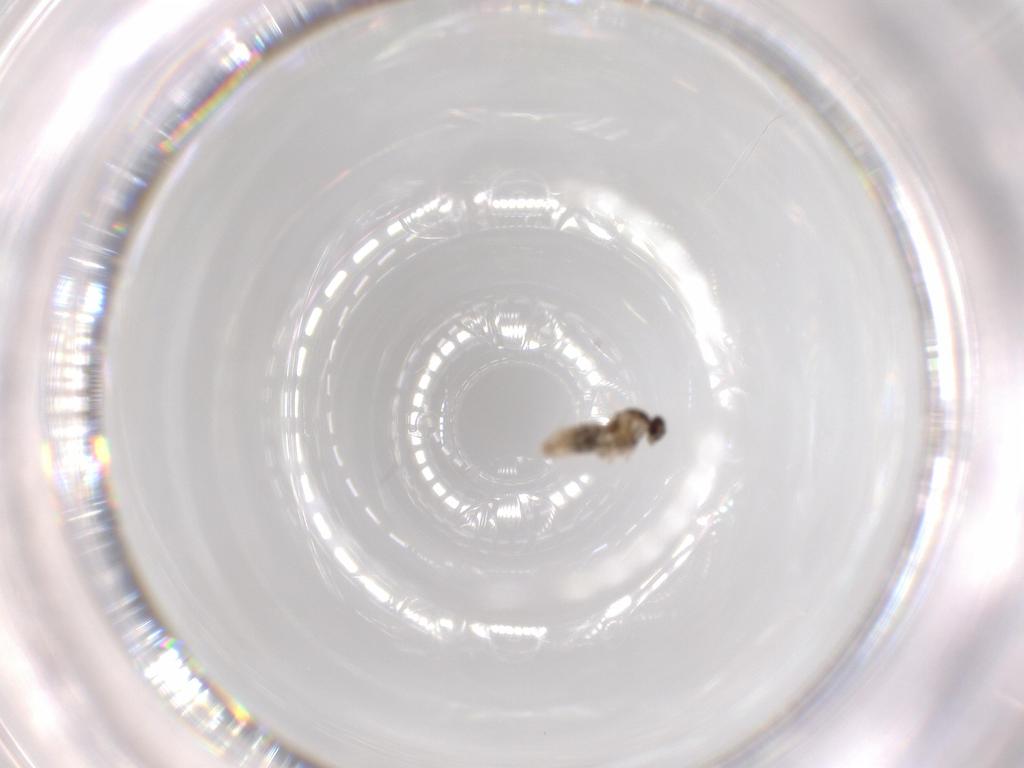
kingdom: Animalia
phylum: Arthropoda
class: Insecta
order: Diptera
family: Cecidomyiidae
